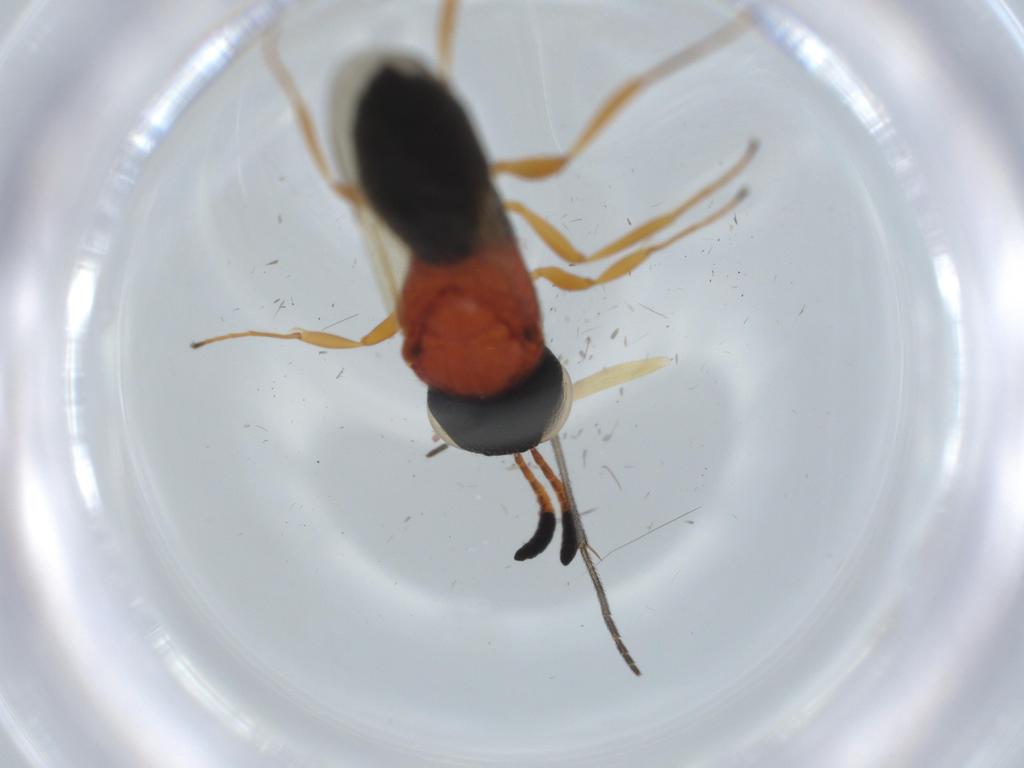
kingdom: Animalia
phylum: Arthropoda
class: Insecta
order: Hymenoptera
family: Scelionidae
